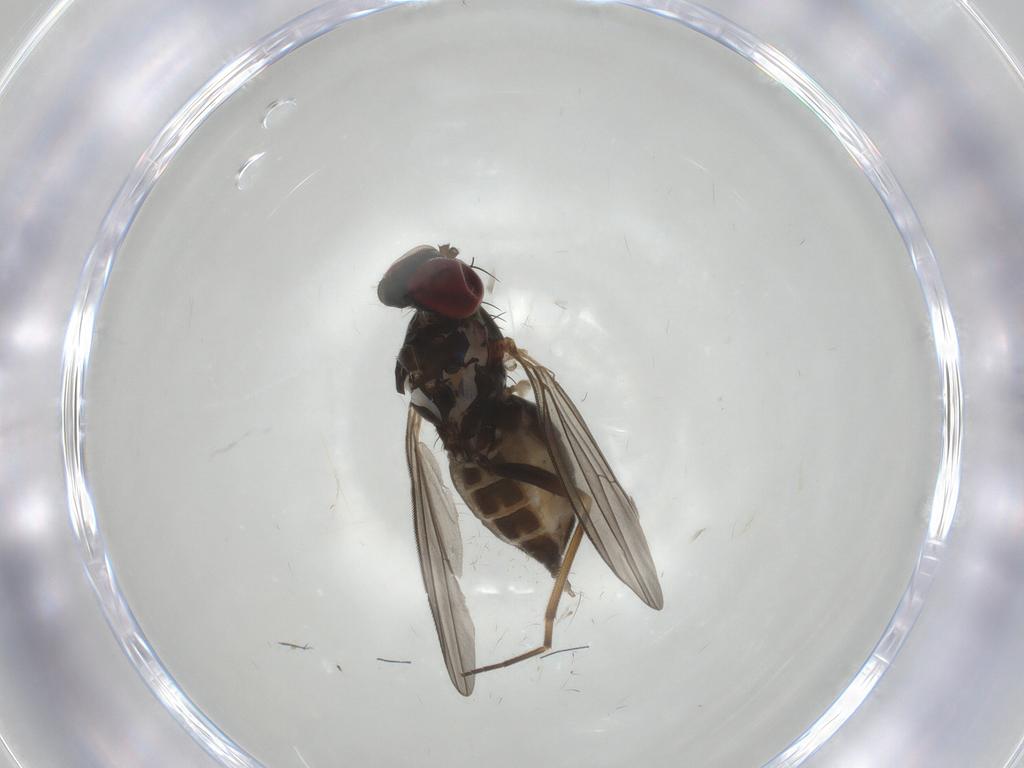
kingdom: Animalia
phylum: Arthropoda
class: Insecta
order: Diptera
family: Dolichopodidae
